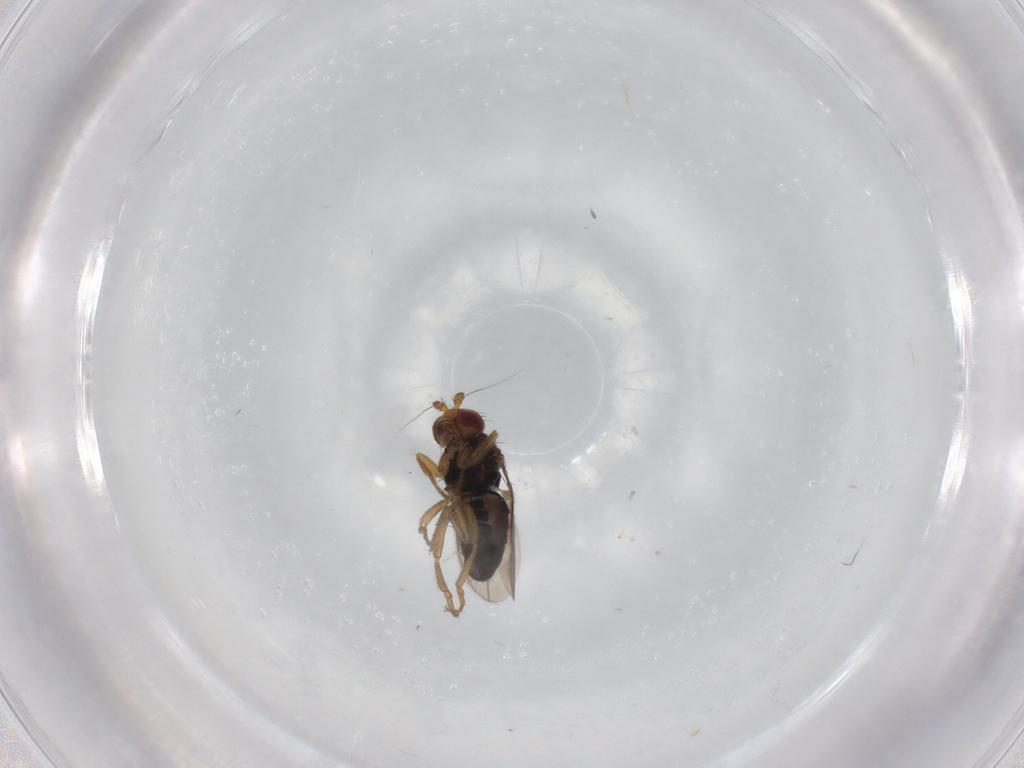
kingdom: Animalia
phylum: Arthropoda
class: Insecta
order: Diptera
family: Sphaeroceridae
